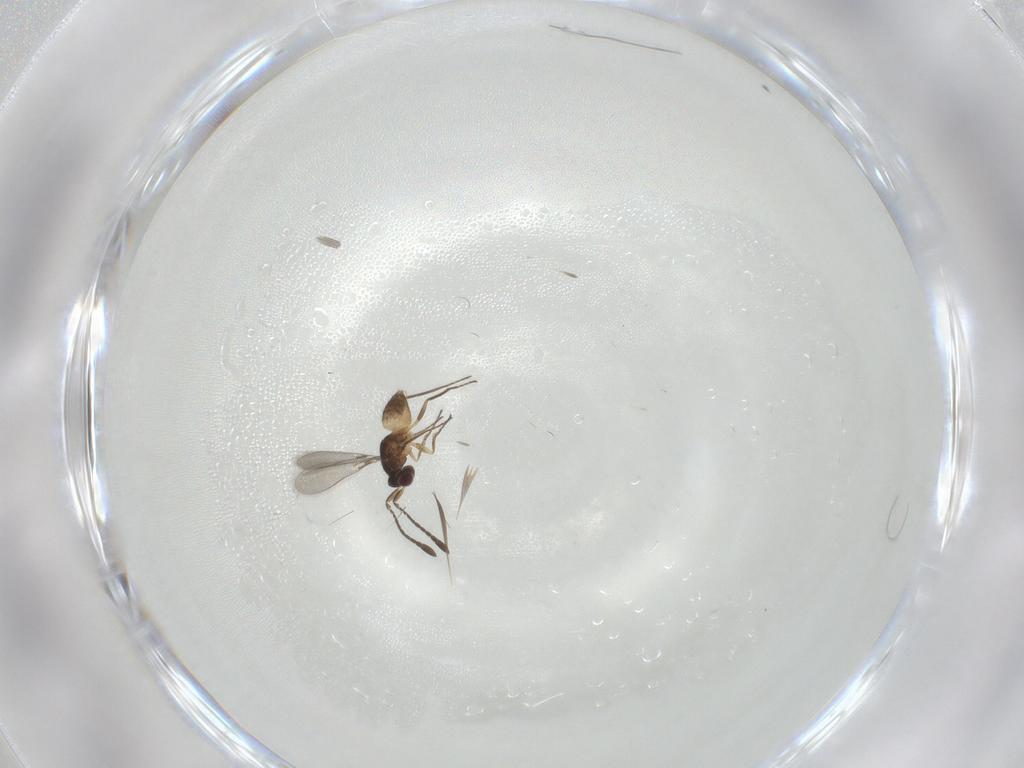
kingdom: Animalia
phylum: Arthropoda
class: Insecta
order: Hymenoptera
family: Mymaridae
